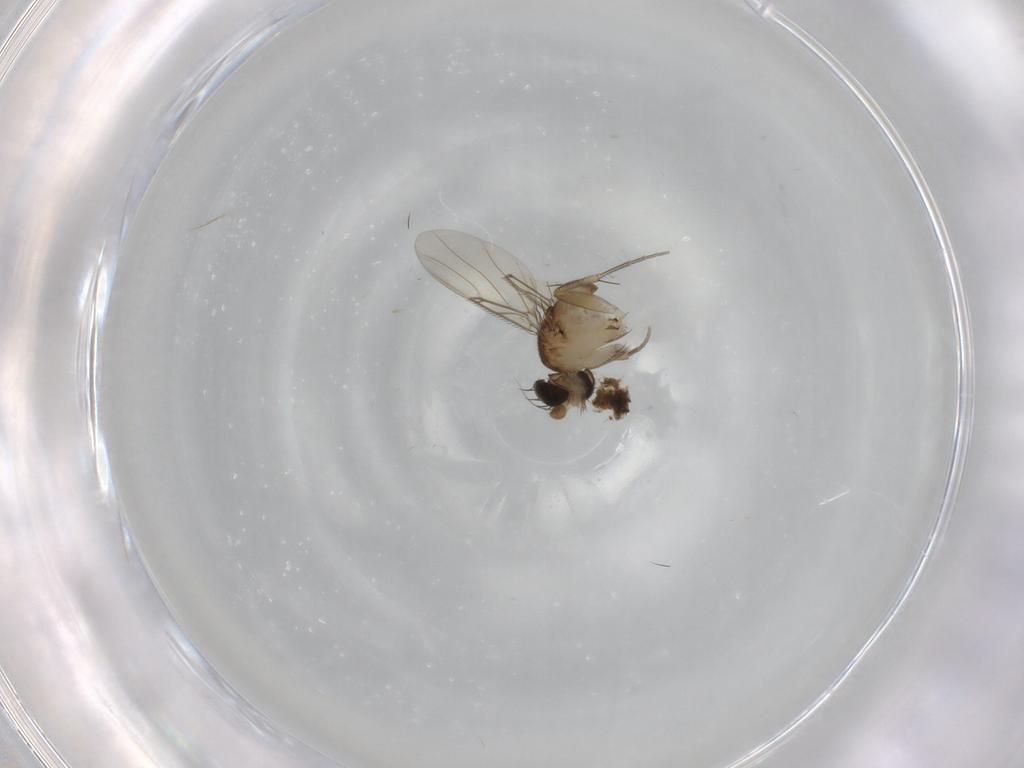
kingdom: Animalia
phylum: Arthropoda
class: Insecta
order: Diptera
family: Phoridae
